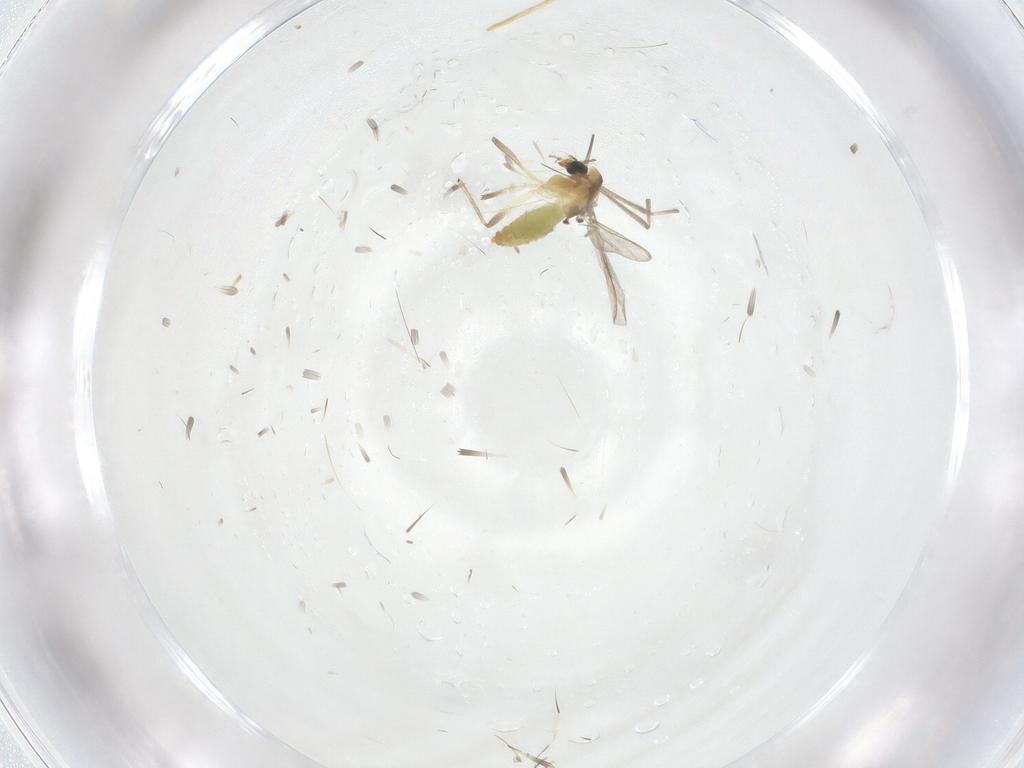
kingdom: Animalia
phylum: Arthropoda
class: Insecta
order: Diptera
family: Chironomidae
